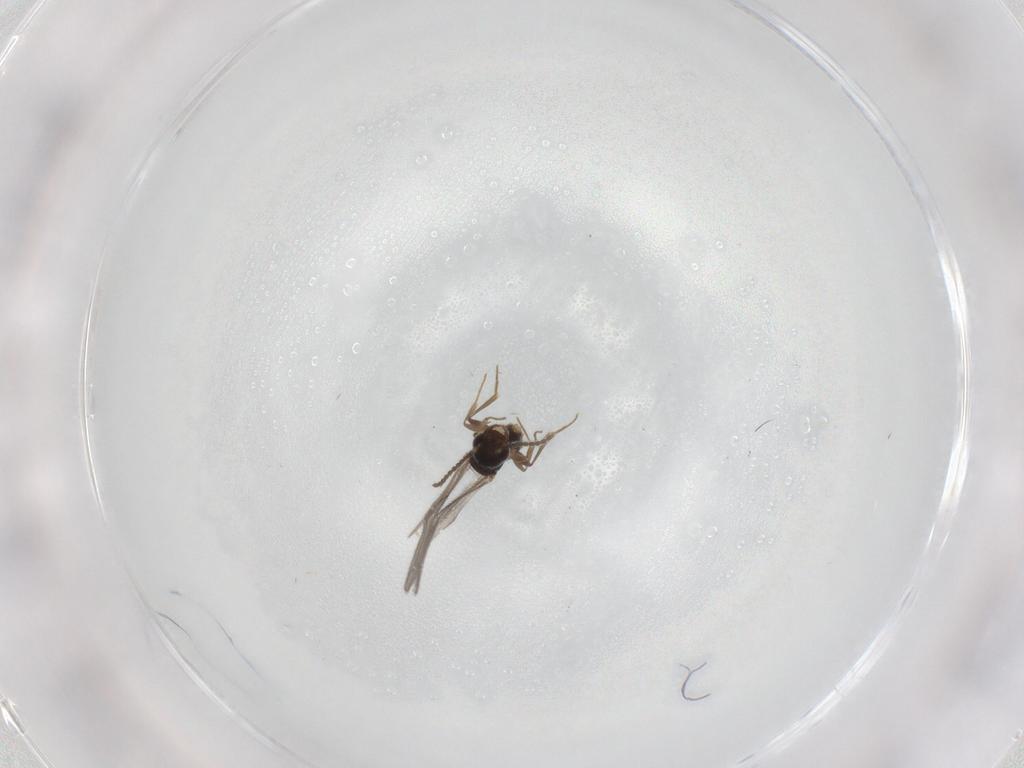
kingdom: Animalia
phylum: Arthropoda
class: Insecta
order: Hymenoptera
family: Bethylidae
